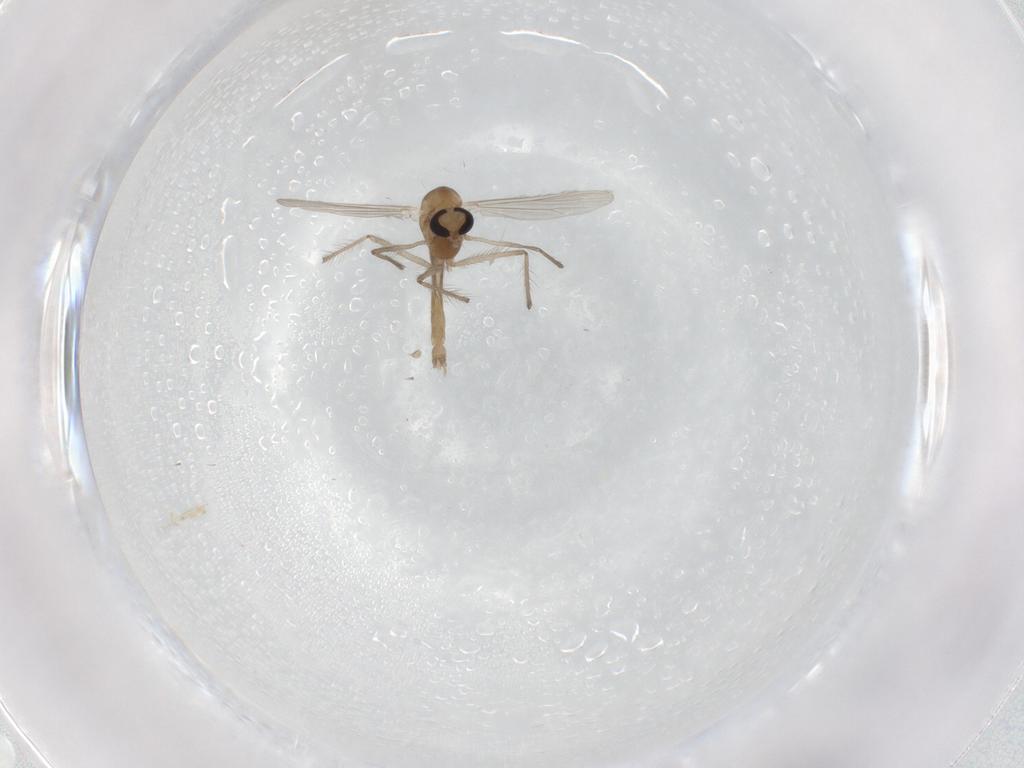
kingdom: Animalia
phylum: Arthropoda
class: Insecta
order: Diptera
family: Chironomidae
